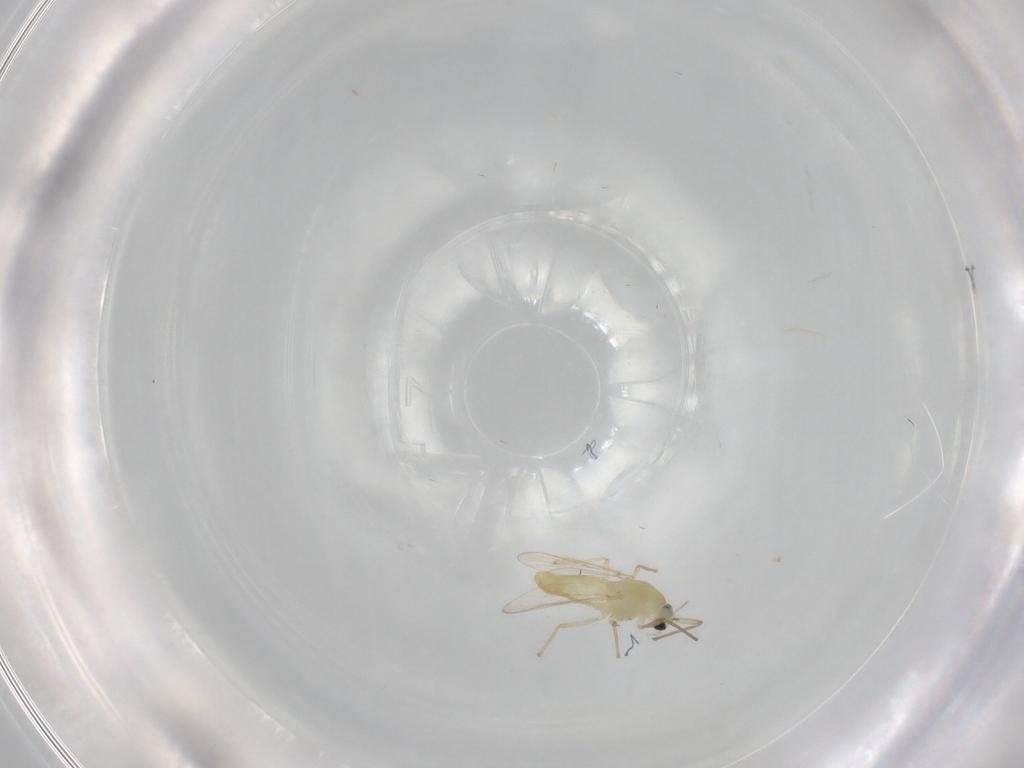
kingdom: Animalia
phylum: Arthropoda
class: Insecta
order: Diptera
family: Chironomidae
